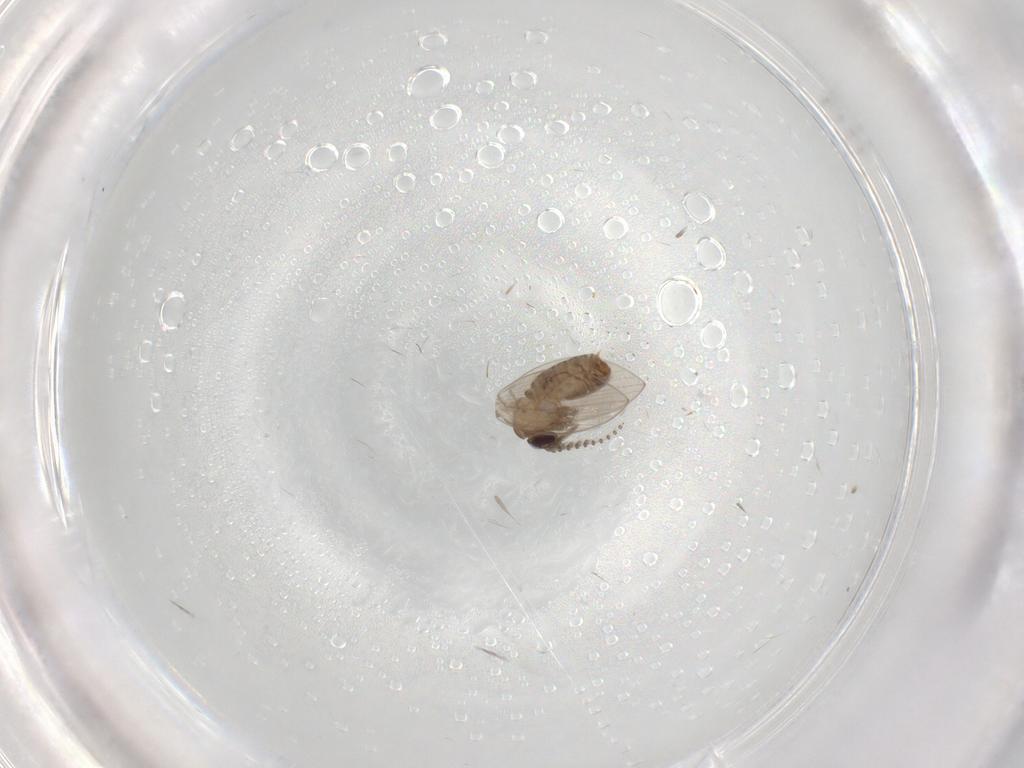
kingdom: Animalia
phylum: Arthropoda
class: Insecta
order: Diptera
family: Psychodidae
